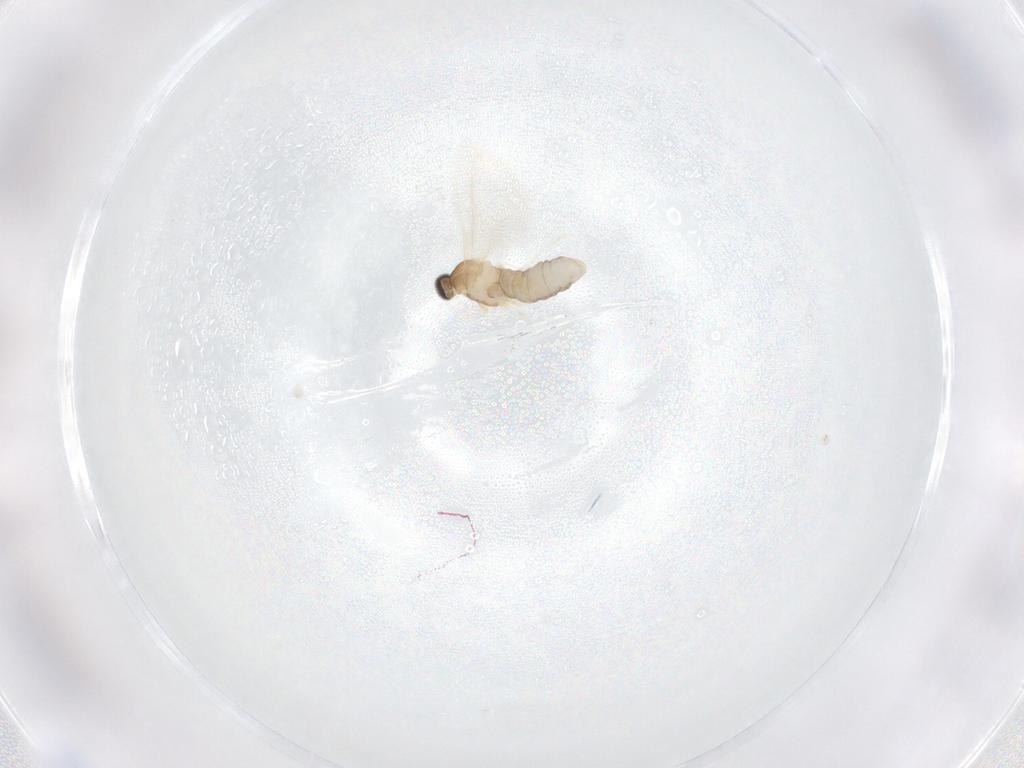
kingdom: Animalia
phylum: Arthropoda
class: Insecta
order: Diptera
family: Cecidomyiidae
